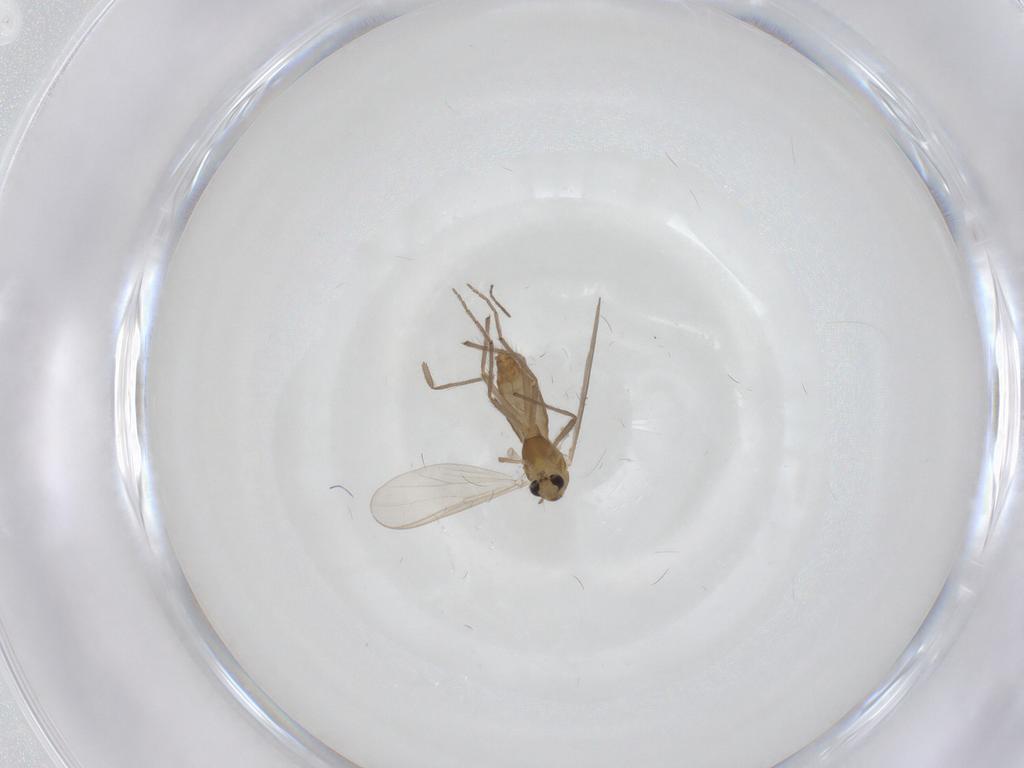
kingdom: Animalia
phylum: Arthropoda
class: Insecta
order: Diptera
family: Chironomidae
